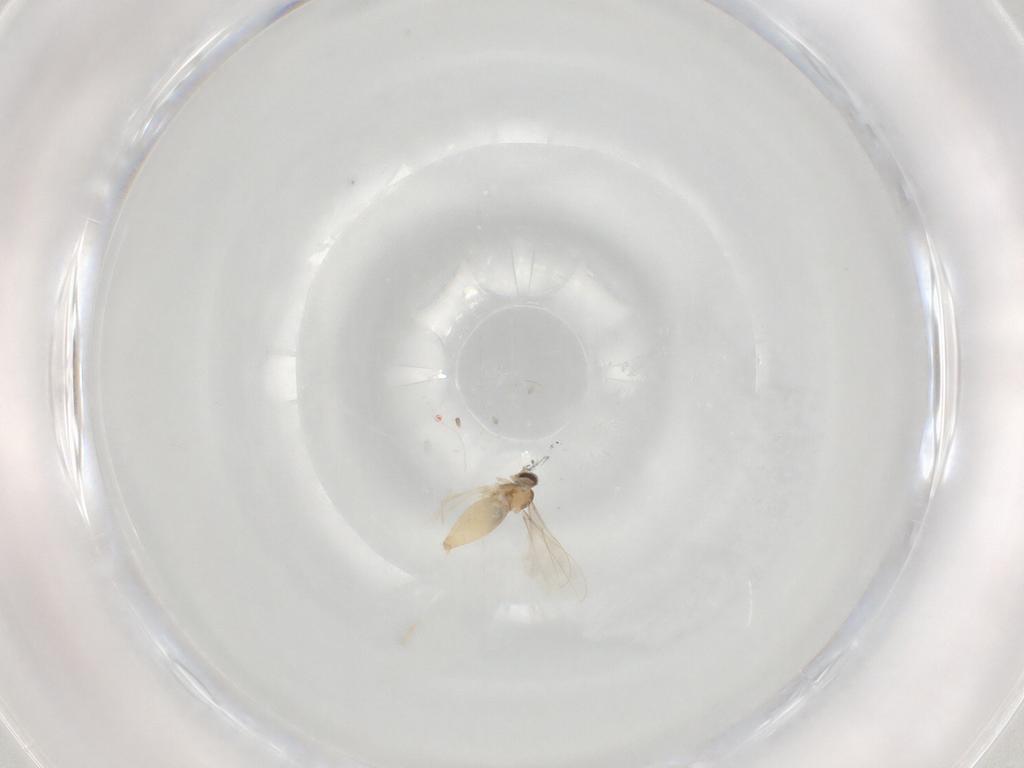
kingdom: Animalia
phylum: Arthropoda
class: Insecta
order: Diptera
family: Cecidomyiidae
